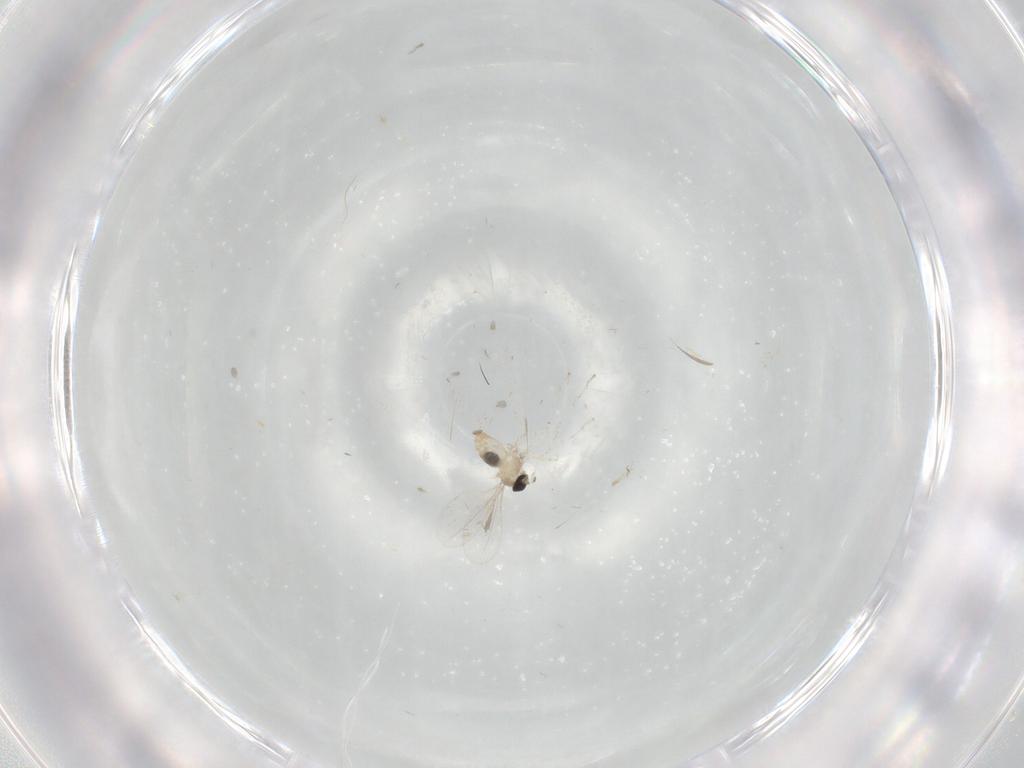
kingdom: Animalia
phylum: Arthropoda
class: Insecta
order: Diptera
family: Cecidomyiidae
